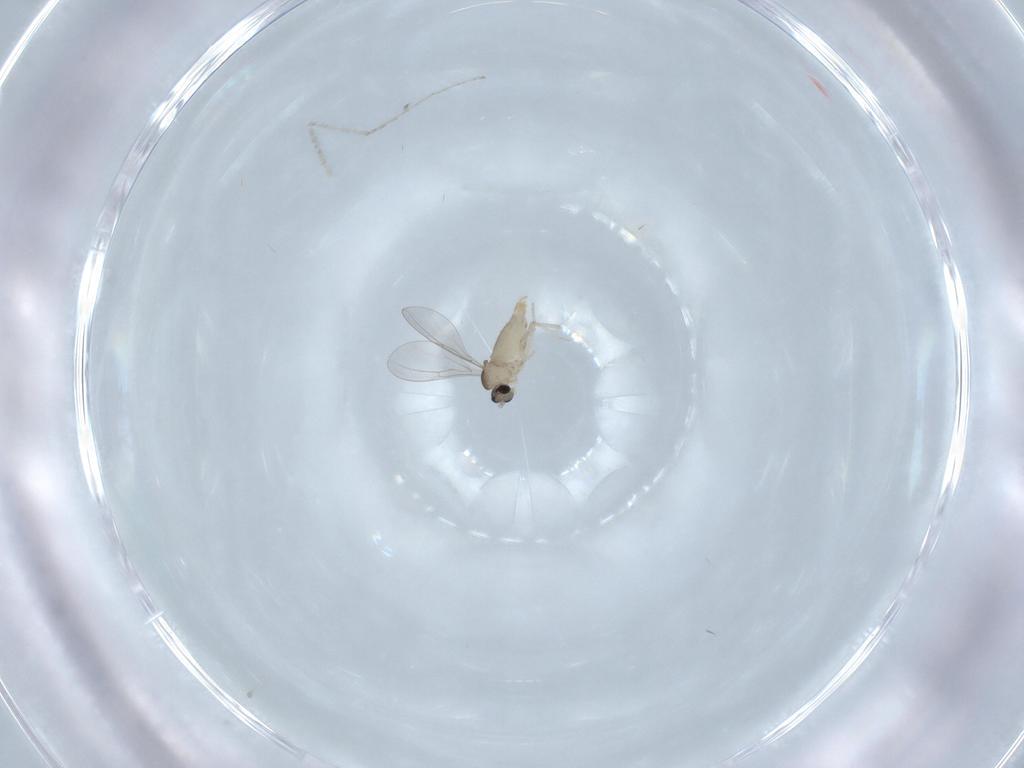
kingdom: Animalia
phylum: Arthropoda
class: Insecta
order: Diptera
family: Cecidomyiidae
